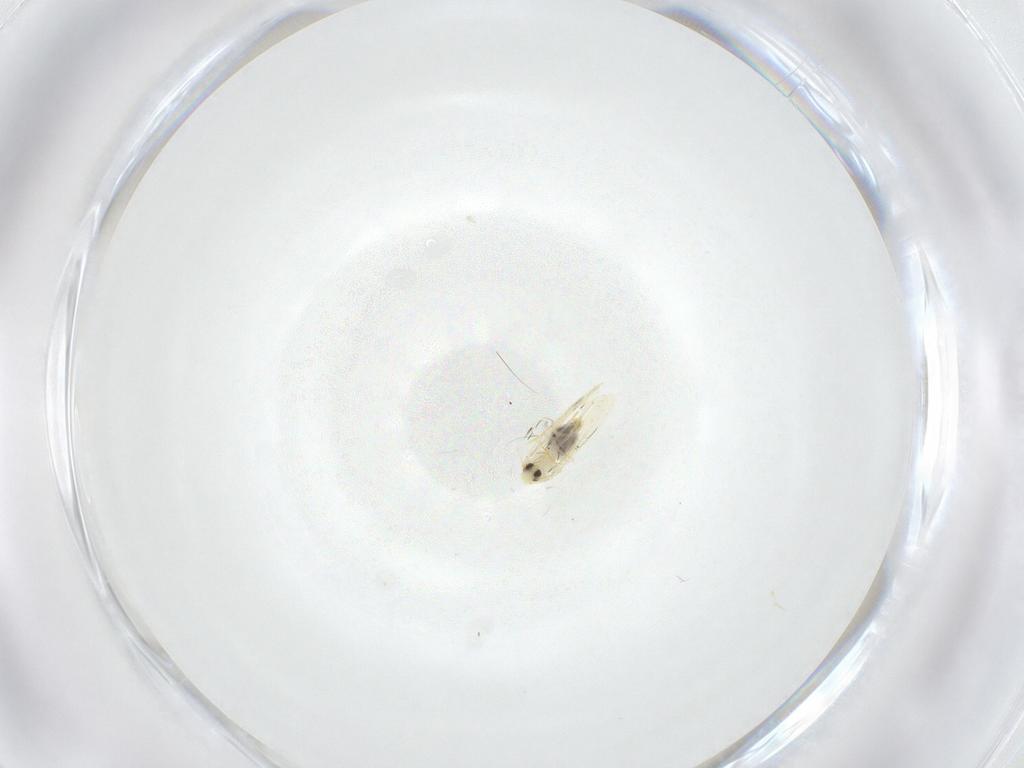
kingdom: Animalia
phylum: Arthropoda
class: Insecta
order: Hemiptera
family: Aleyrodidae
